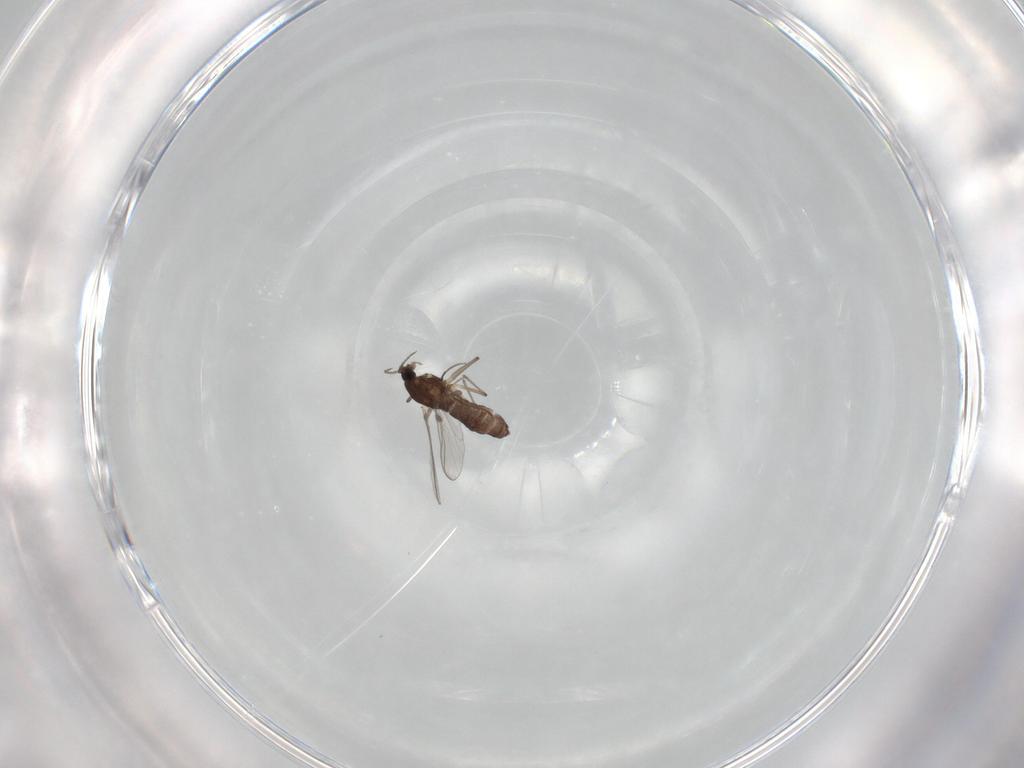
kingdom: Animalia
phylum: Arthropoda
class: Insecta
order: Diptera
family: Chironomidae
